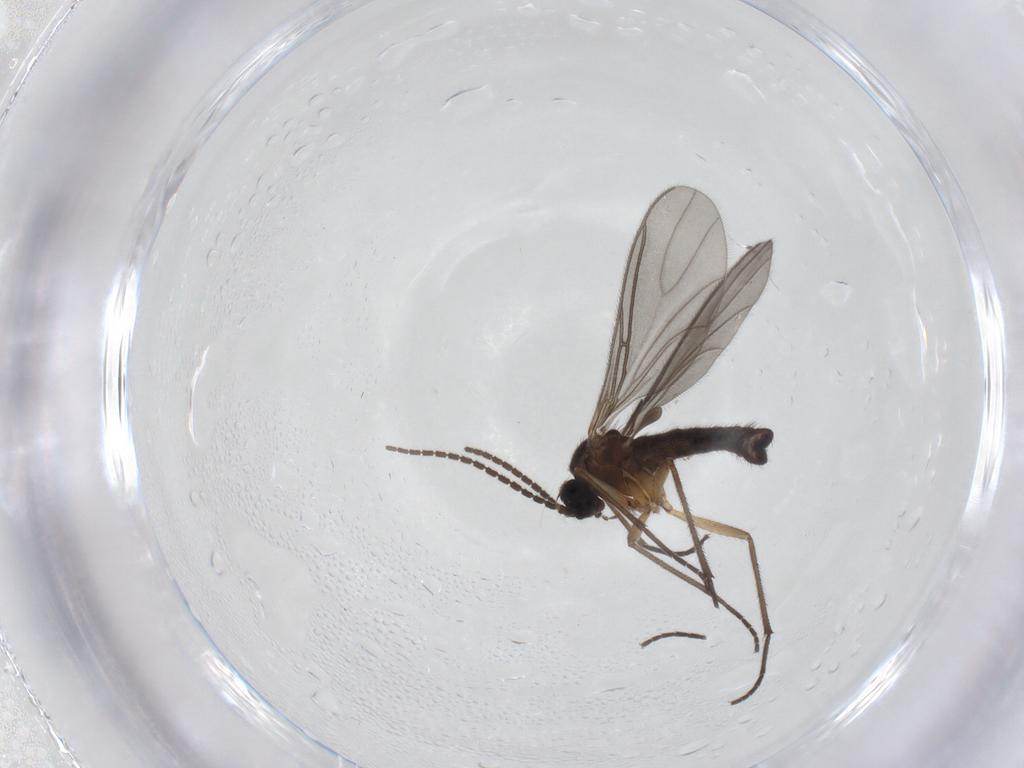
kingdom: Animalia
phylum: Arthropoda
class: Insecta
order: Diptera
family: Sciaridae
